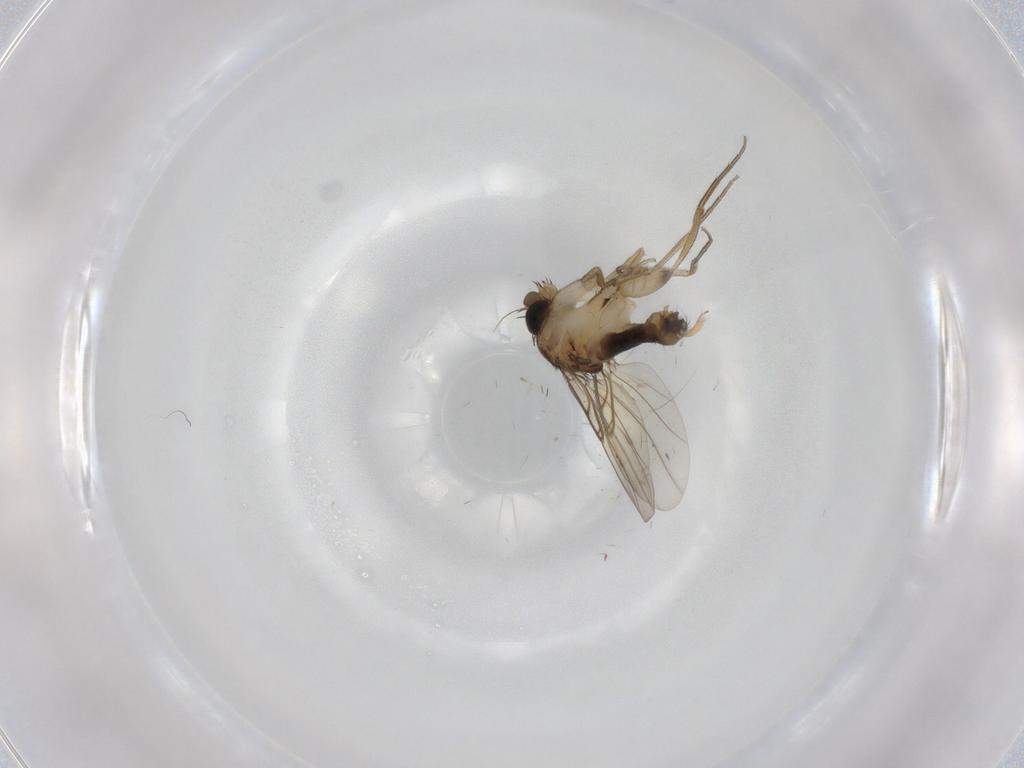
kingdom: Animalia
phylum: Arthropoda
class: Insecta
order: Diptera
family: Phoridae
